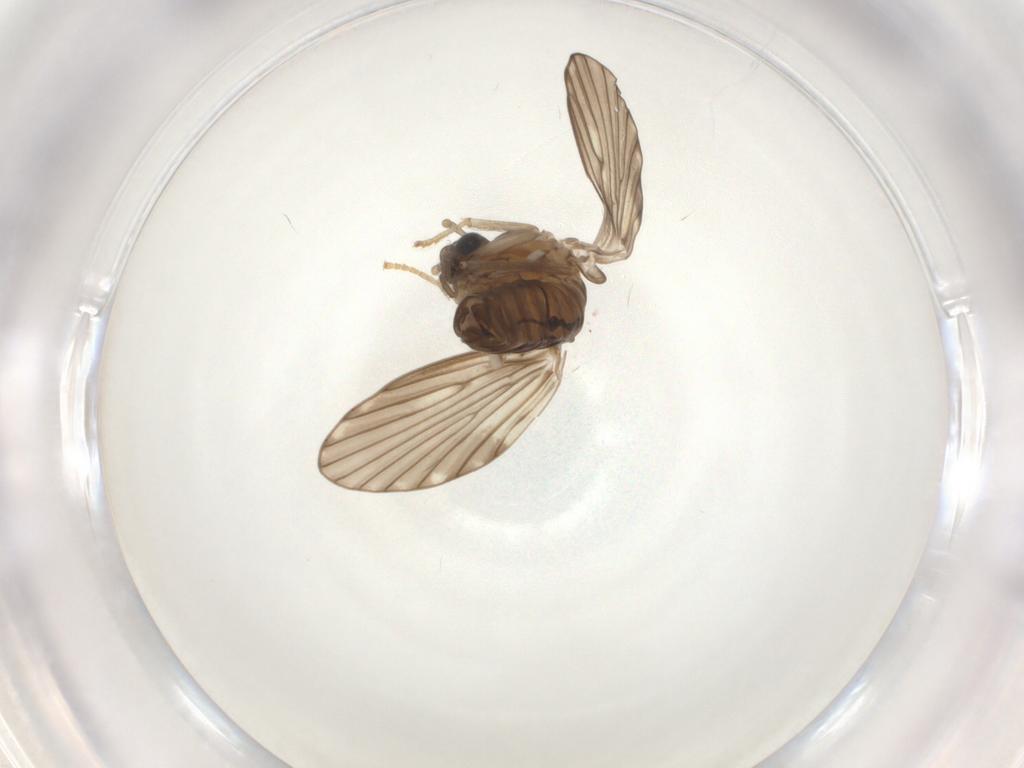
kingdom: Animalia
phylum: Arthropoda
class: Insecta
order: Diptera
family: Psychodidae
